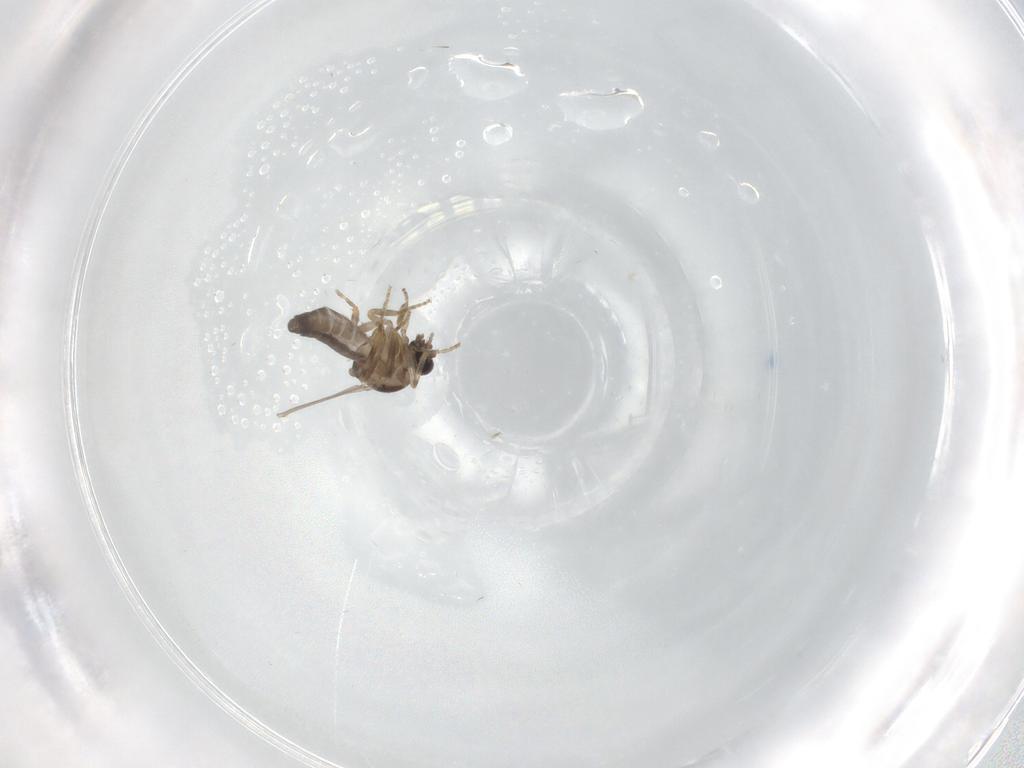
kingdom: Animalia
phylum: Arthropoda
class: Insecta
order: Diptera
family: Ceratopogonidae
